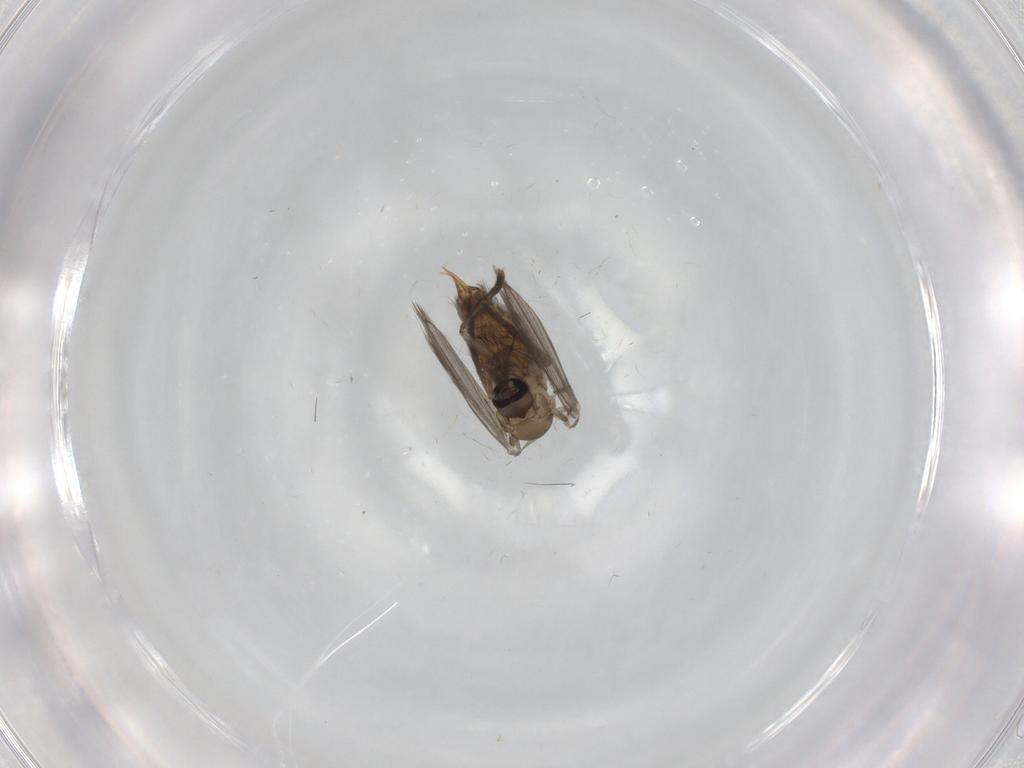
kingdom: Animalia
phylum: Arthropoda
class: Insecta
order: Diptera
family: Psychodidae
